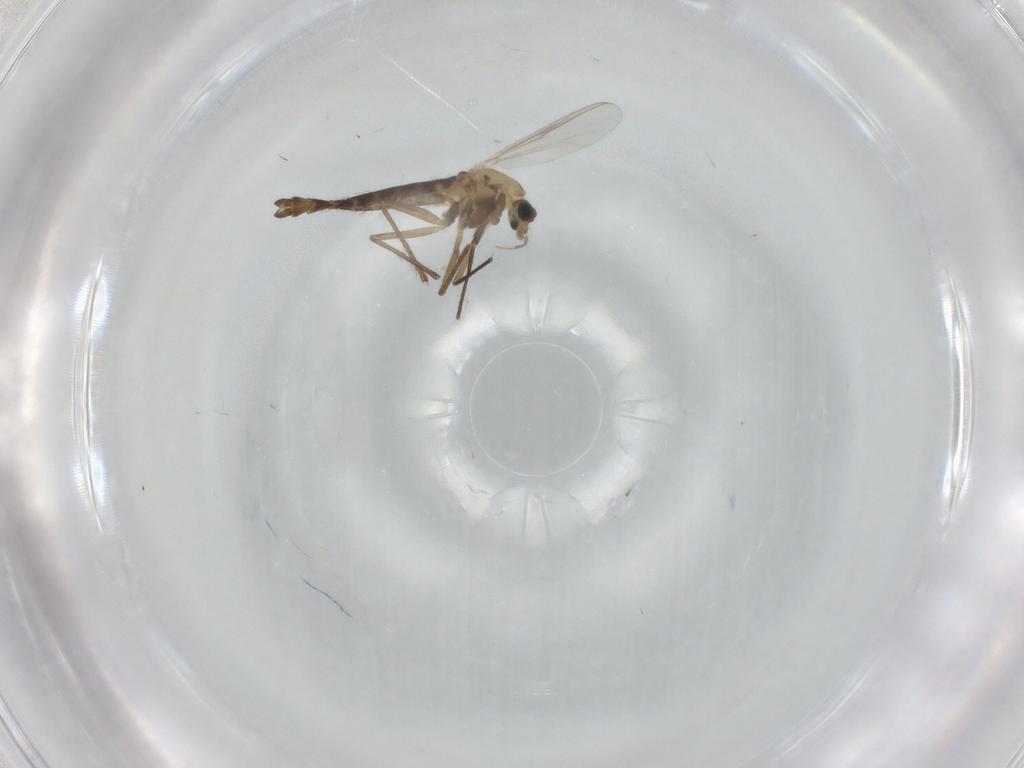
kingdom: Animalia
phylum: Arthropoda
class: Insecta
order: Diptera
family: Chironomidae
